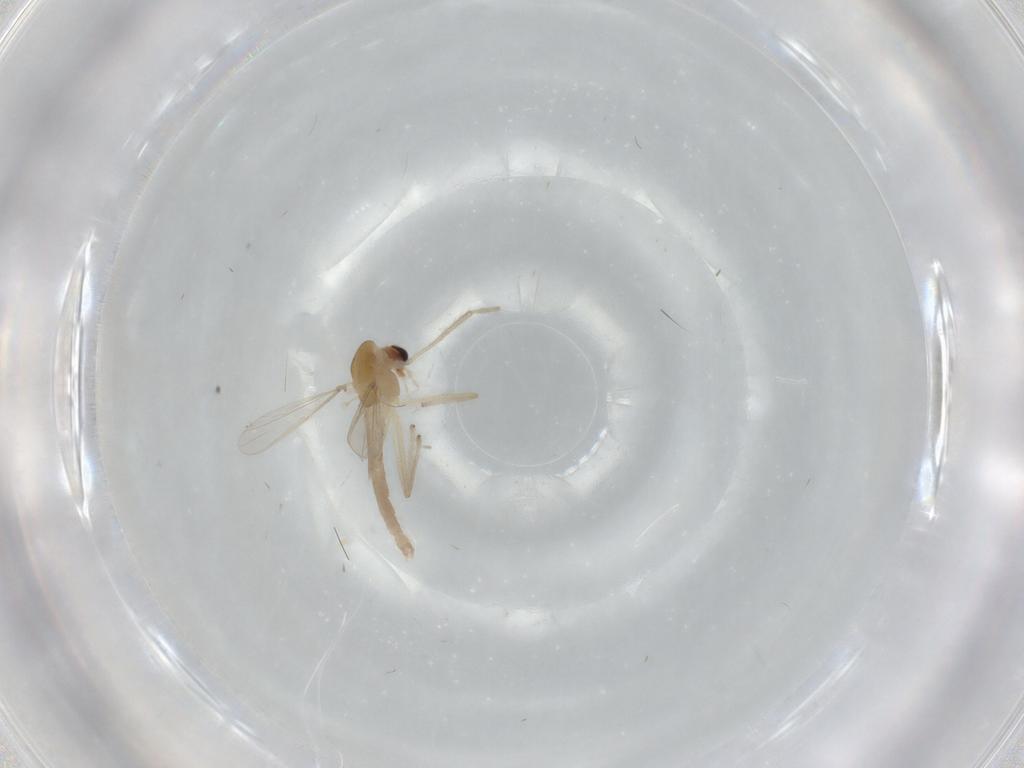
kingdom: Animalia
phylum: Arthropoda
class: Insecta
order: Diptera
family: Chironomidae
